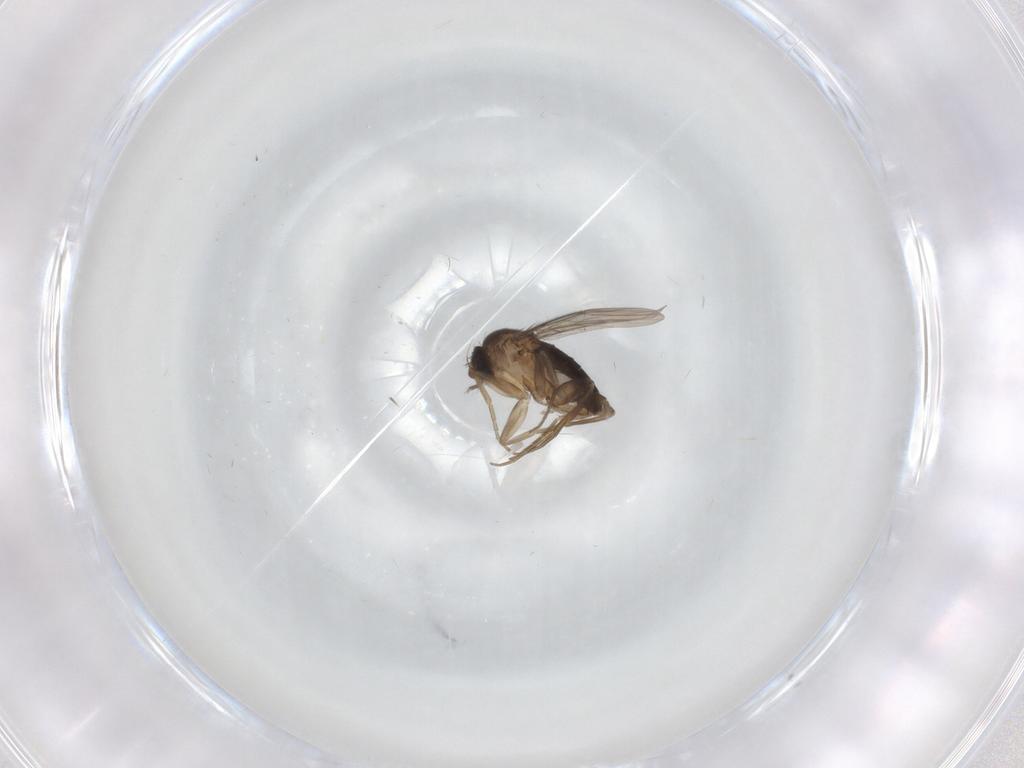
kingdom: Animalia
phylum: Arthropoda
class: Insecta
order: Diptera
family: Phoridae
